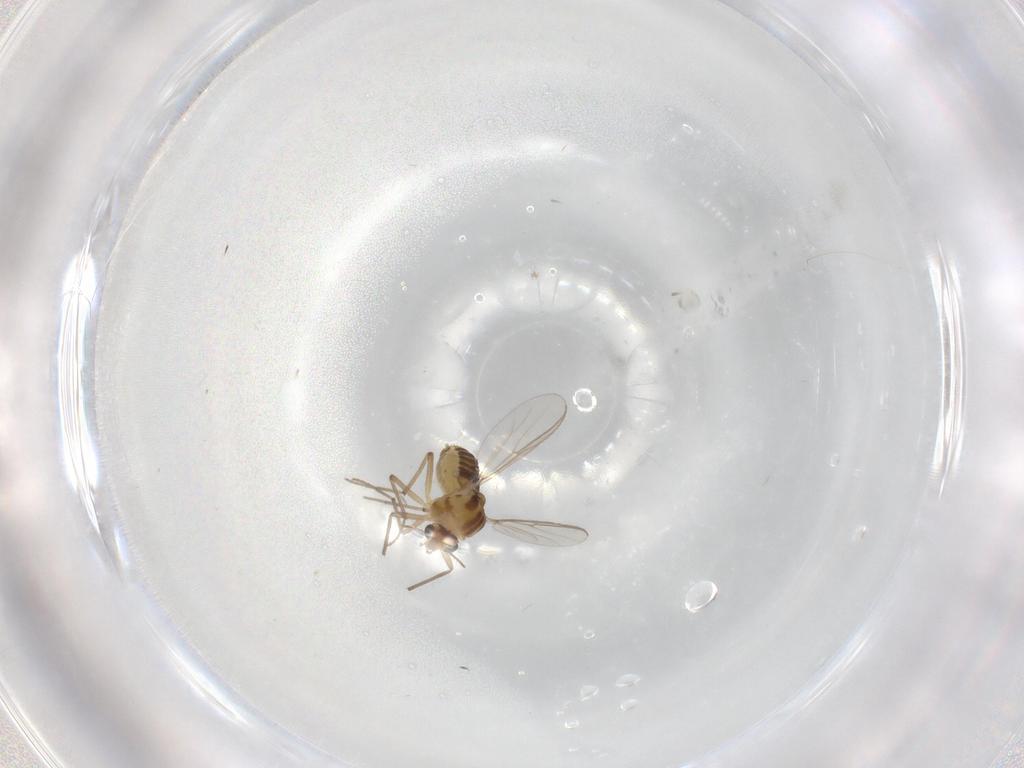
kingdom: Animalia
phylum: Arthropoda
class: Insecta
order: Diptera
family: Chironomidae
